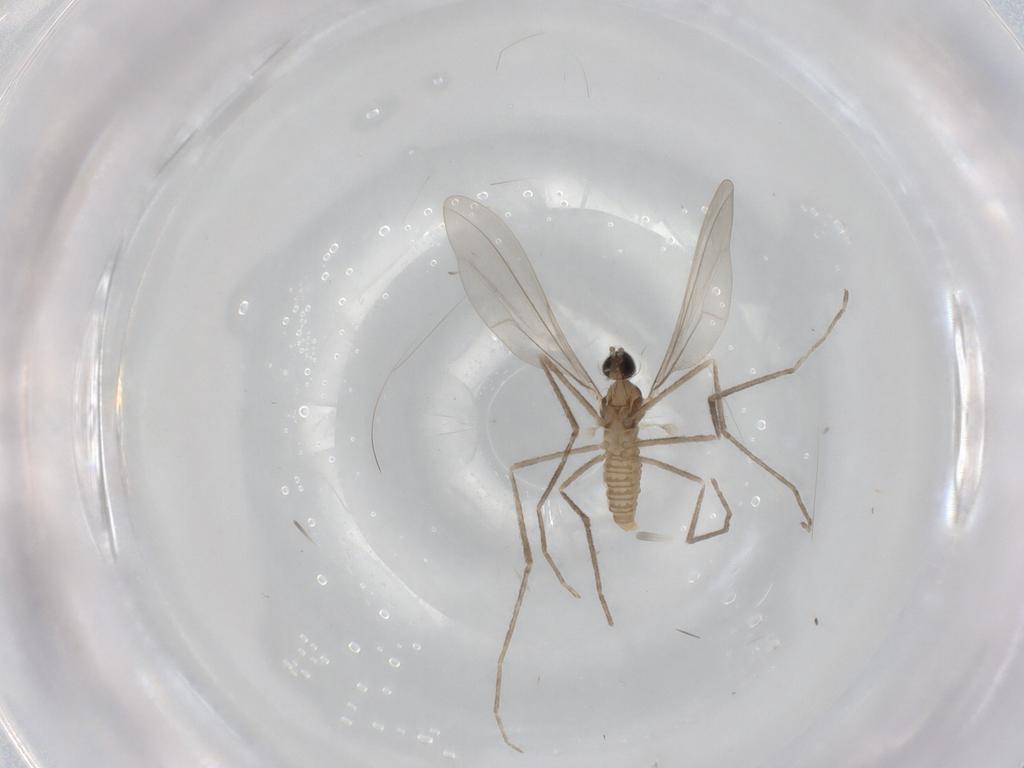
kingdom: Animalia
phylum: Arthropoda
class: Insecta
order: Diptera
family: Cecidomyiidae
